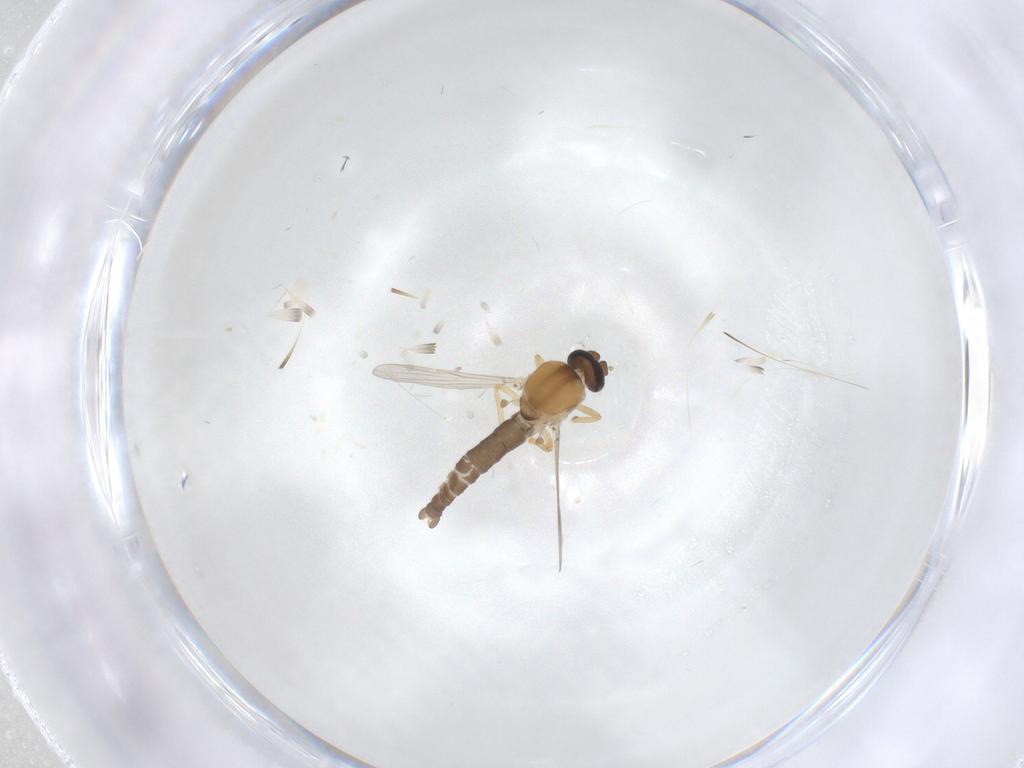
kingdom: Animalia
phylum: Arthropoda
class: Insecta
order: Diptera
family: Ceratopogonidae
